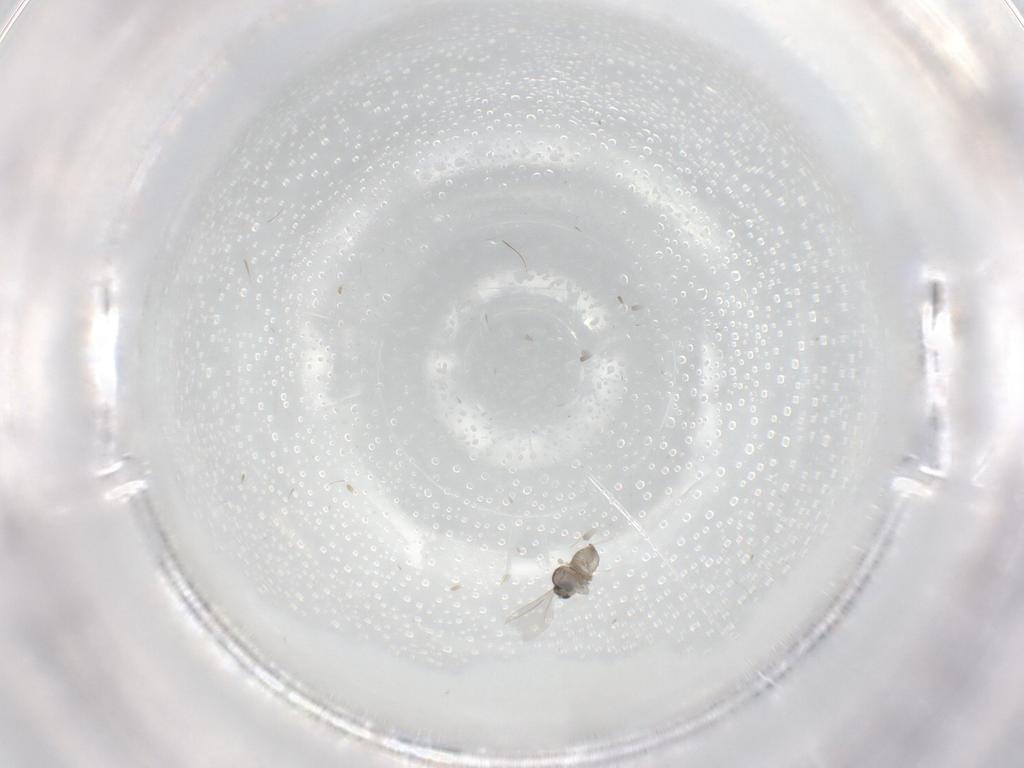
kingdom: Animalia
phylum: Arthropoda
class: Insecta
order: Diptera
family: Cecidomyiidae
